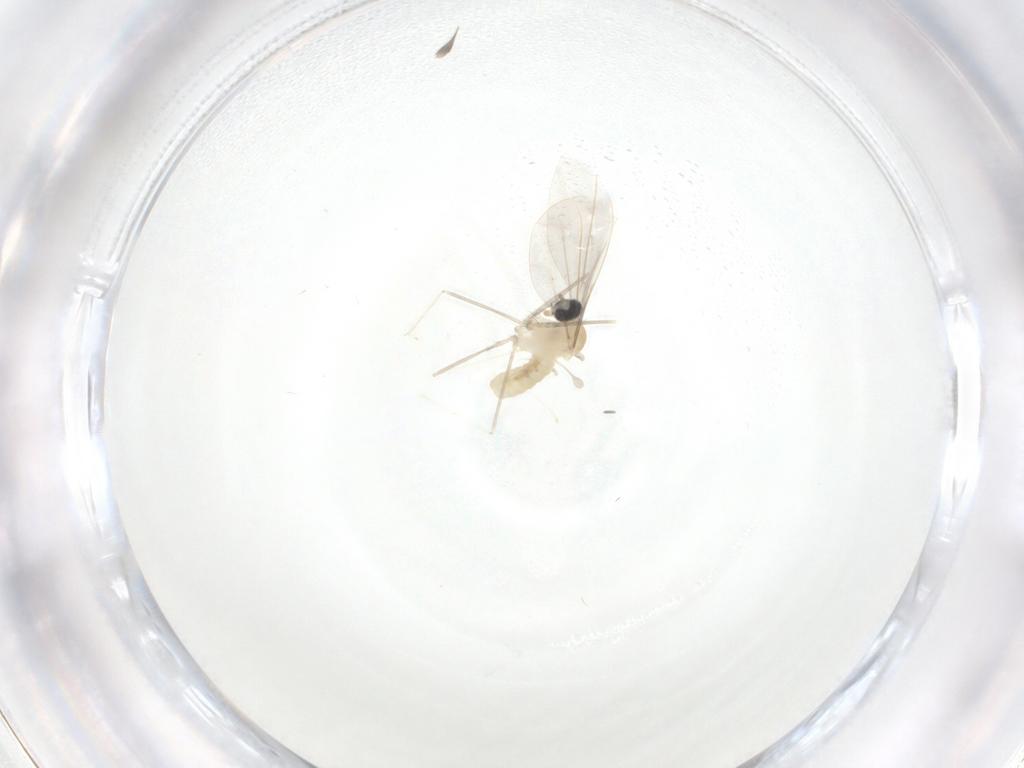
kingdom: Animalia
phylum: Arthropoda
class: Insecta
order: Diptera
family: Cecidomyiidae
